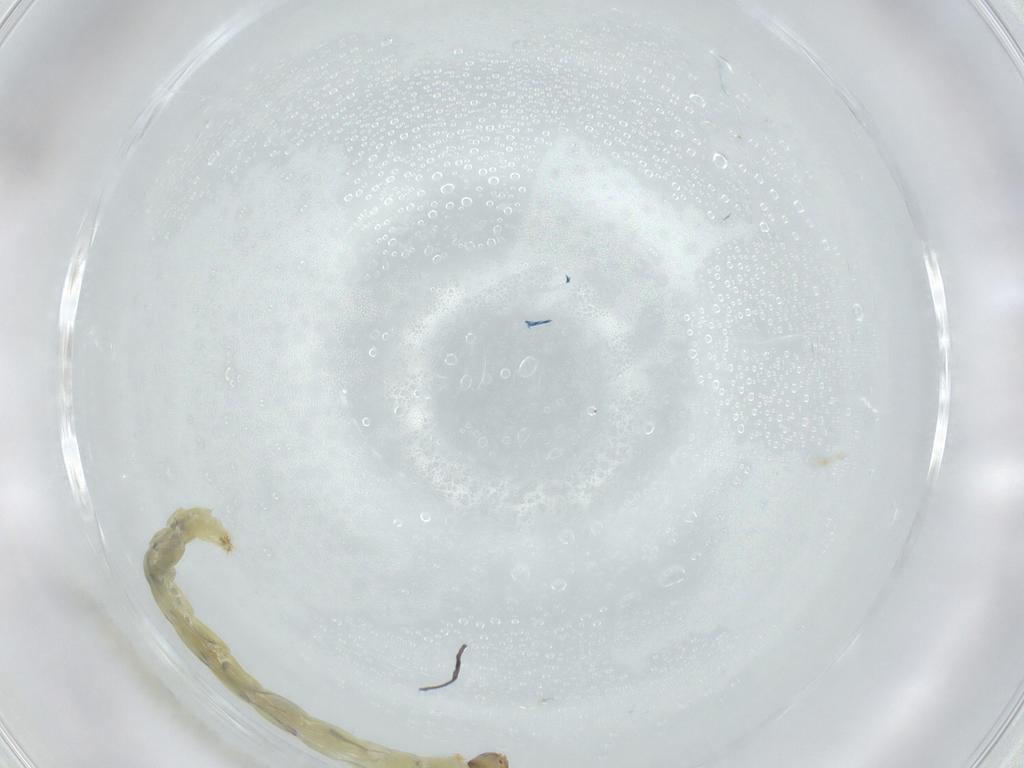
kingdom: Animalia
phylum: Arthropoda
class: Insecta
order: Diptera
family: Chironomidae
